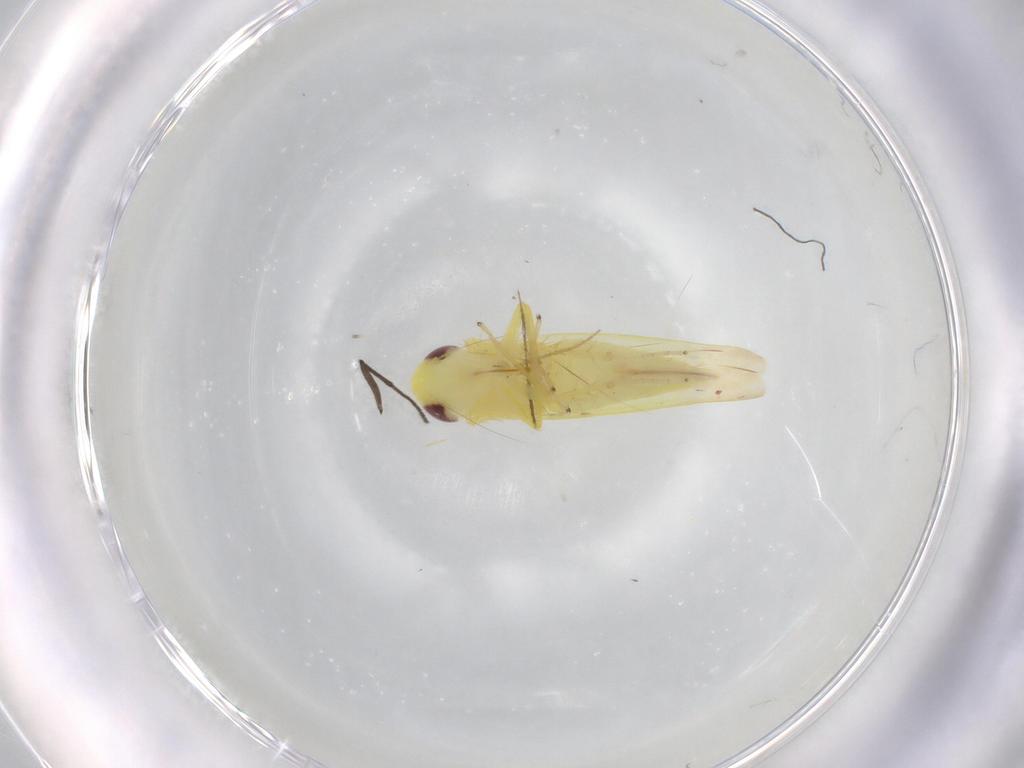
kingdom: Animalia
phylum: Arthropoda
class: Insecta
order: Hemiptera
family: Cicadellidae
